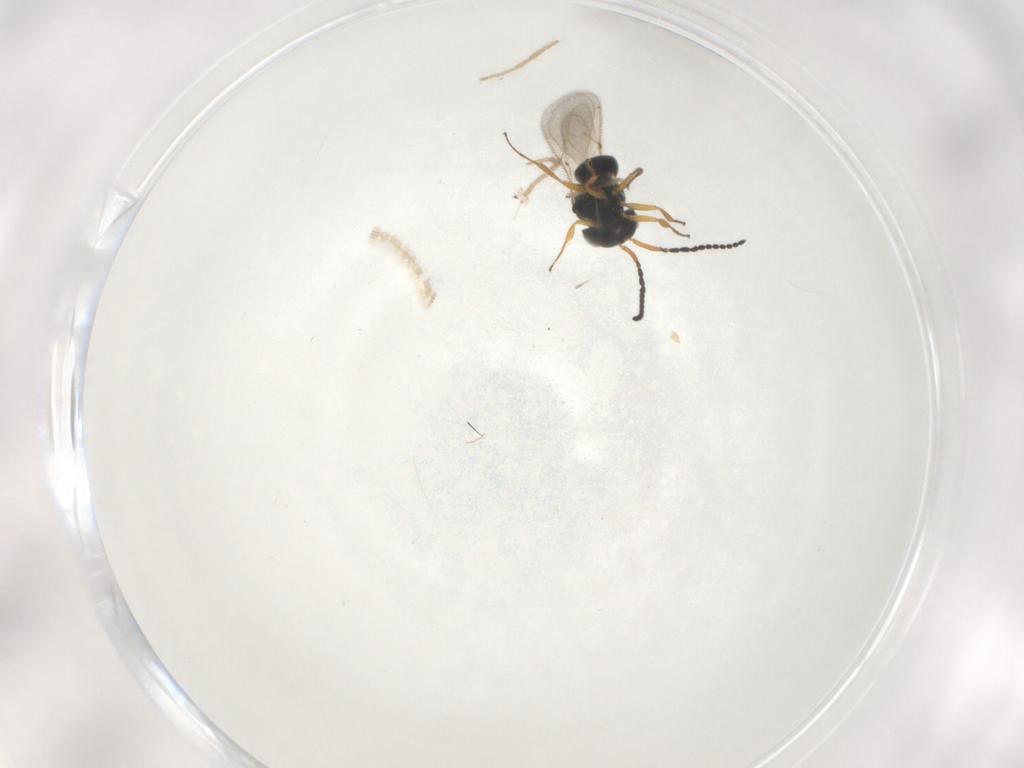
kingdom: Animalia
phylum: Arthropoda
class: Insecta
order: Hymenoptera
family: Scelionidae
